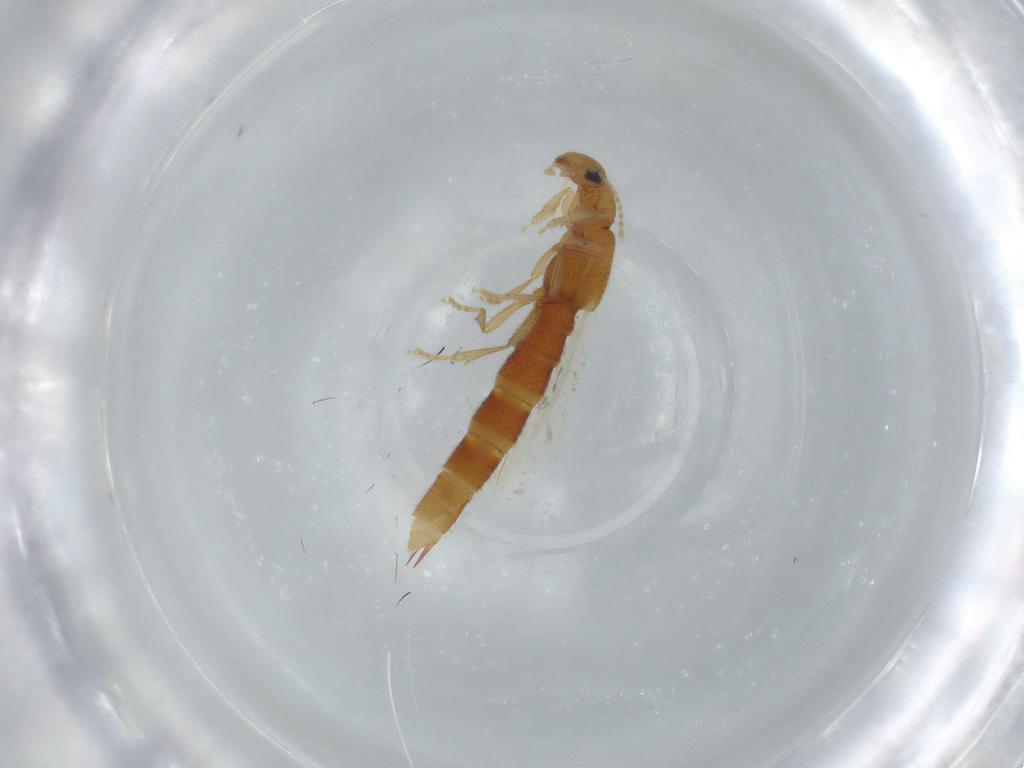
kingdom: Animalia
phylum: Arthropoda
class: Insecta
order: Coleoptera
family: Staphylinidae
